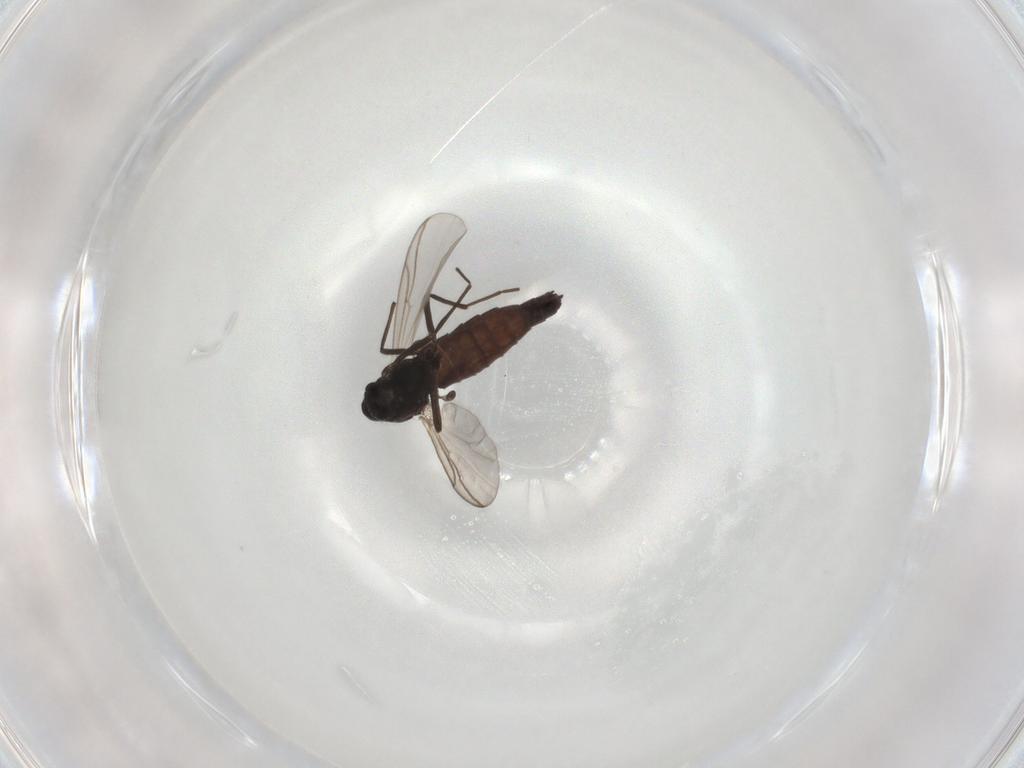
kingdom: Animalia
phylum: Arthropoda
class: Insecta
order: Diptera
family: Chironomidae
